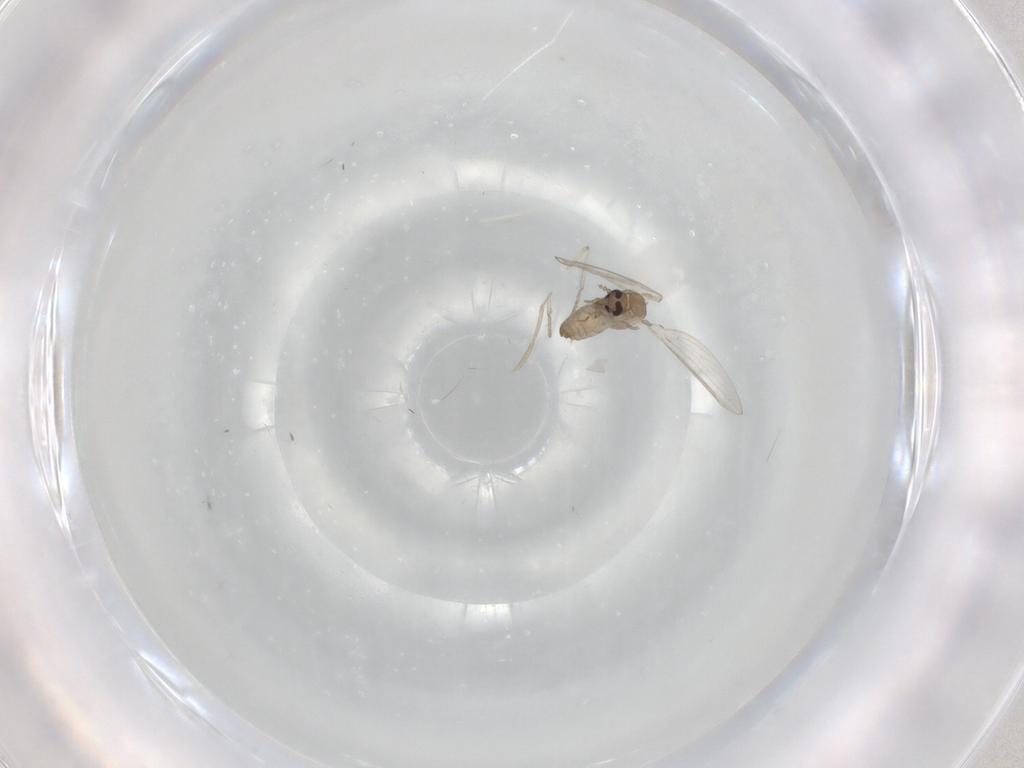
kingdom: Animalia
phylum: Arthropoda
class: Insecta
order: Diptera
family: Psychodidae
